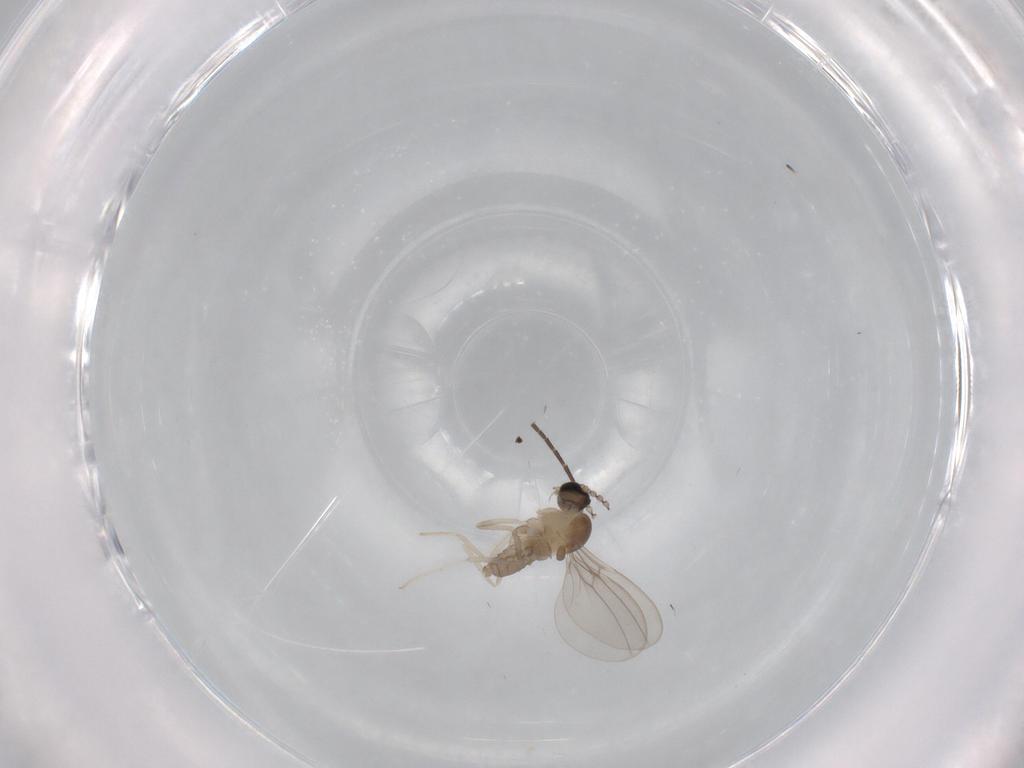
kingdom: Animalia
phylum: Arthropoda
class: Insecta
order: Diptera
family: Cecidomyiidae
